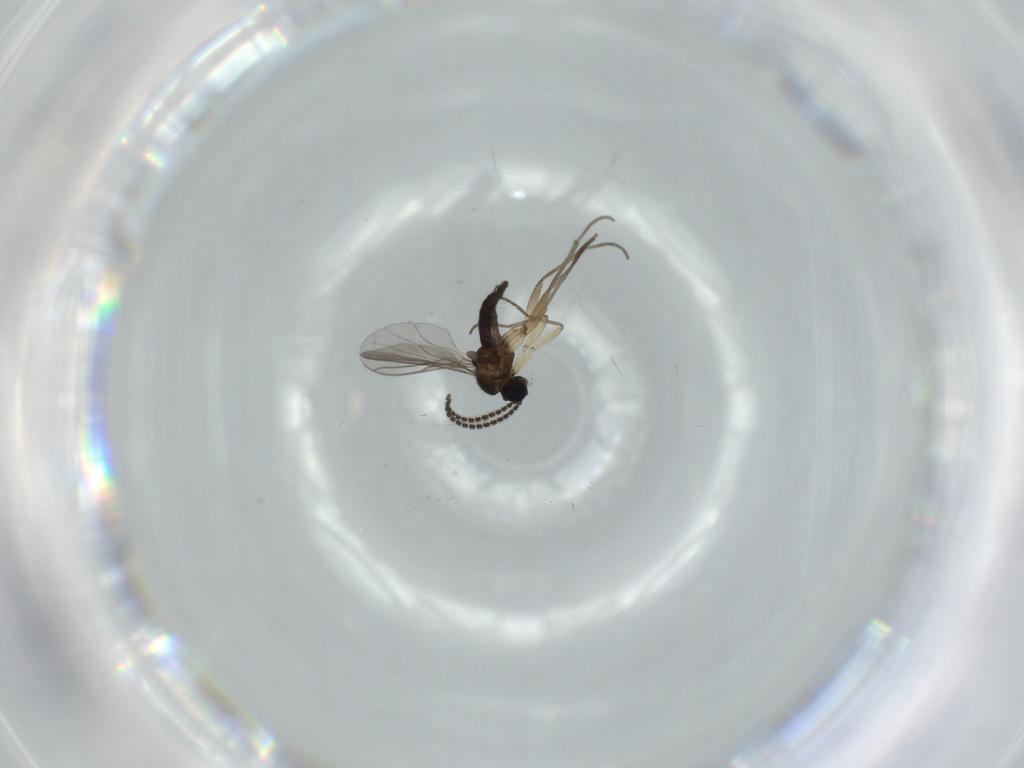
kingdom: Animalia
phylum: Arthropoda
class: Insecta
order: Diptera
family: Sciaridae
